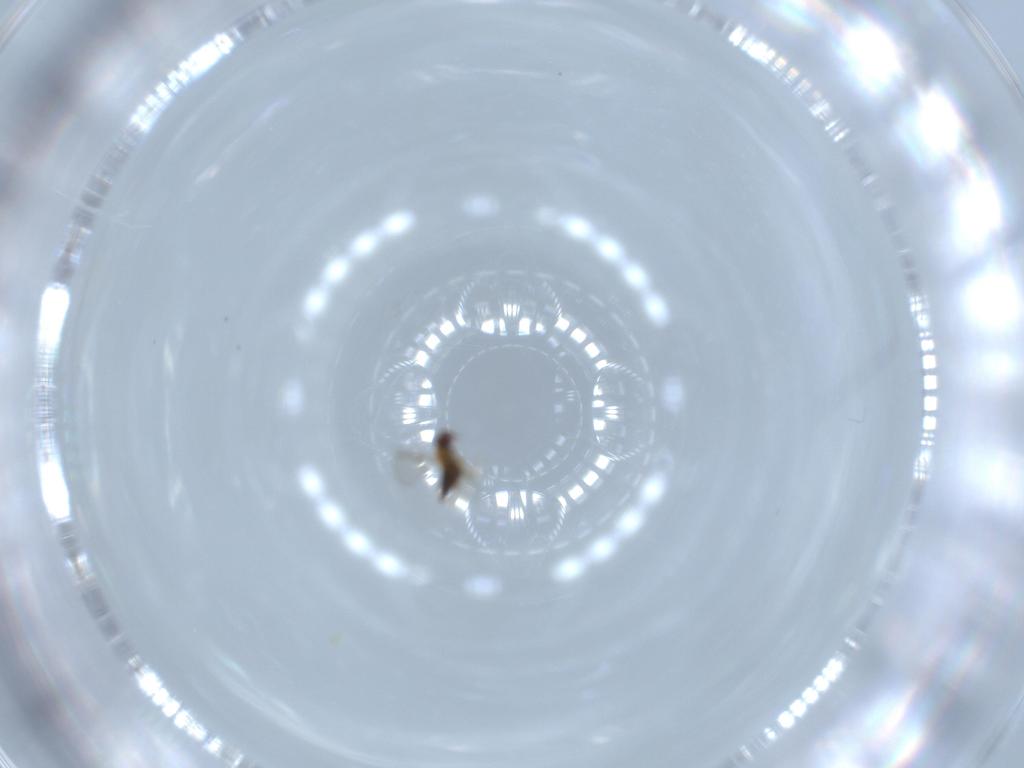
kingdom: Animalia
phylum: Arthropoda
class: Insecta
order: Hymenoptera
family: Trichogrammatidae
